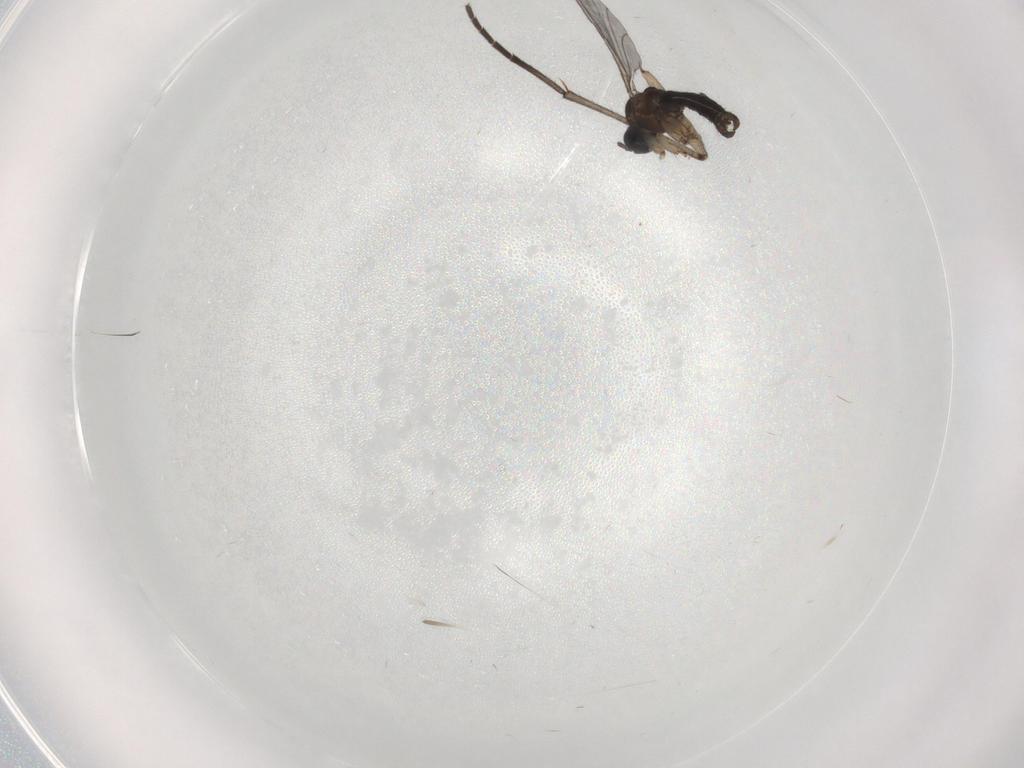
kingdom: Animalia
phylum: Arthropoda
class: Insecta
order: Diptera
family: Sciaridae
